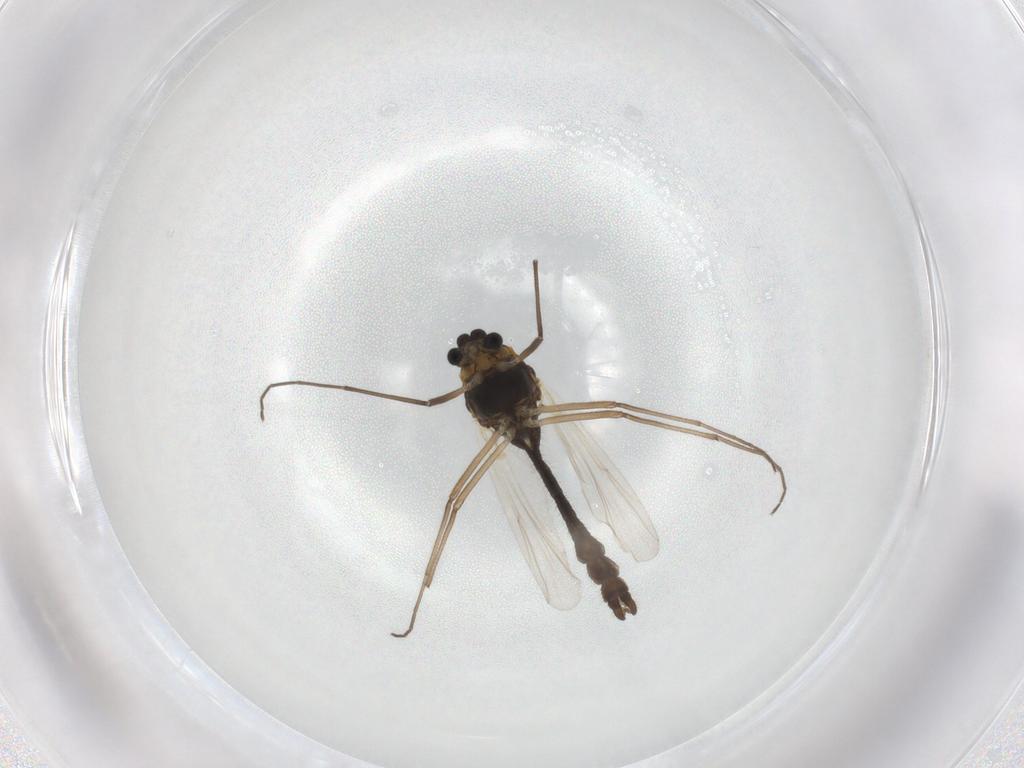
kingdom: Animalia
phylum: Arthropoda
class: Insecta
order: Diptera
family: Chironomidae
